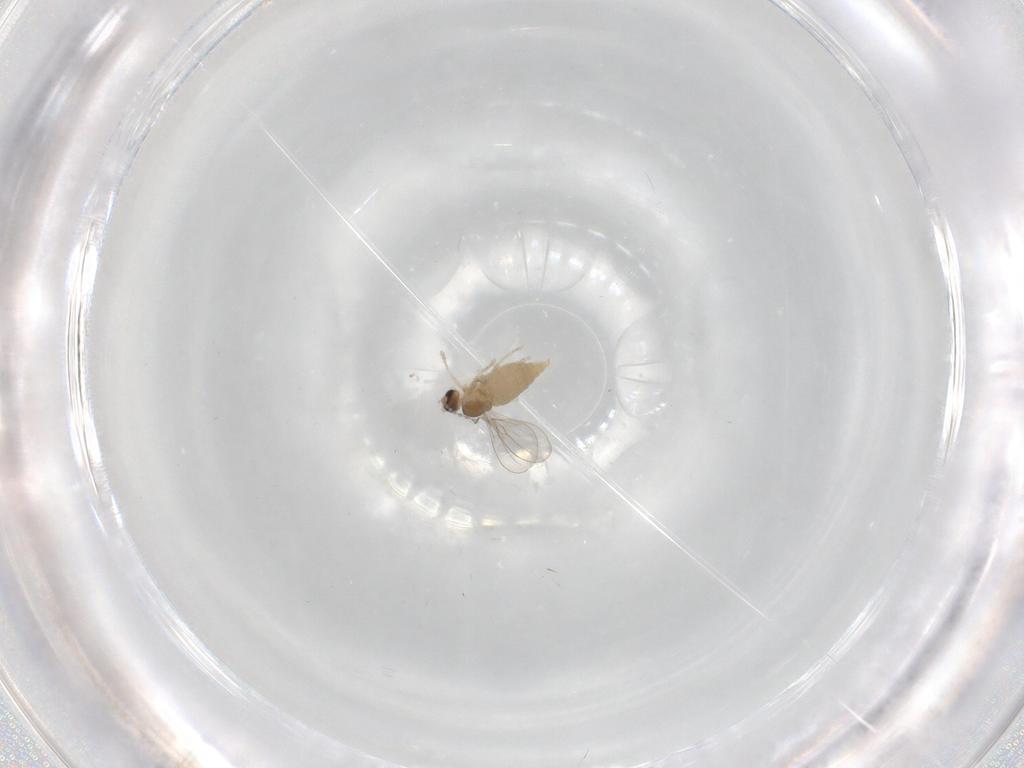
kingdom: Animalia
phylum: Arthropoda
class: Insecta
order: Diptera
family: Cecidomyiidae
